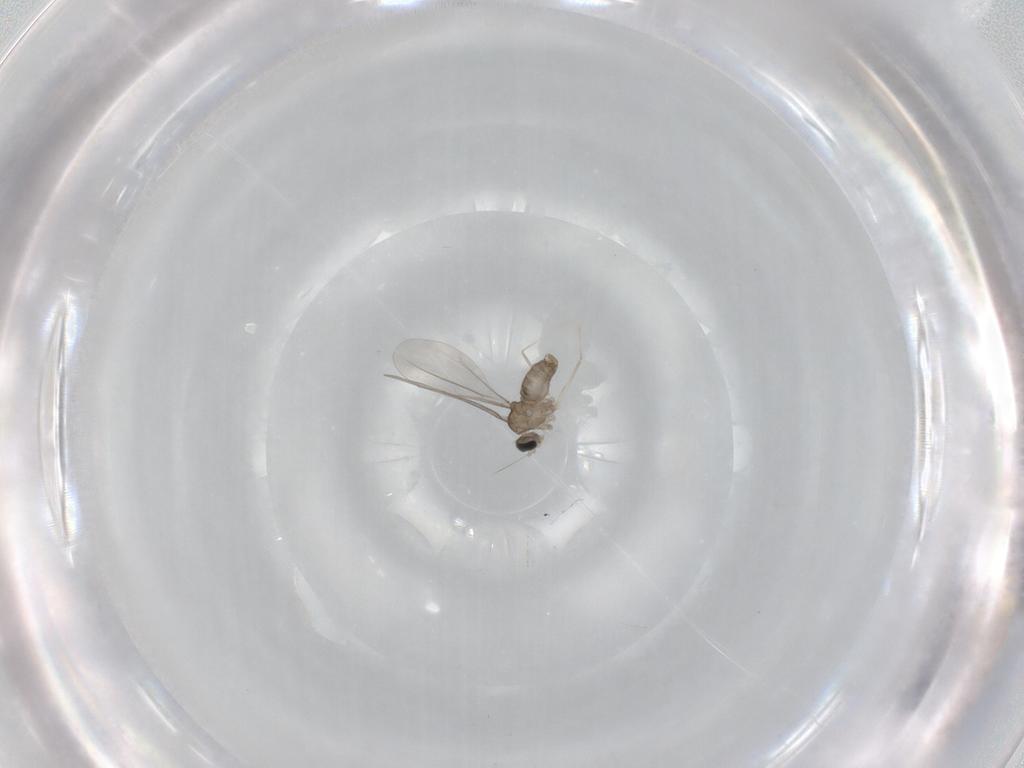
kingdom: Animalia
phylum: Arthropoda
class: Insecta
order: Diptera
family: Cecidomyiidae
